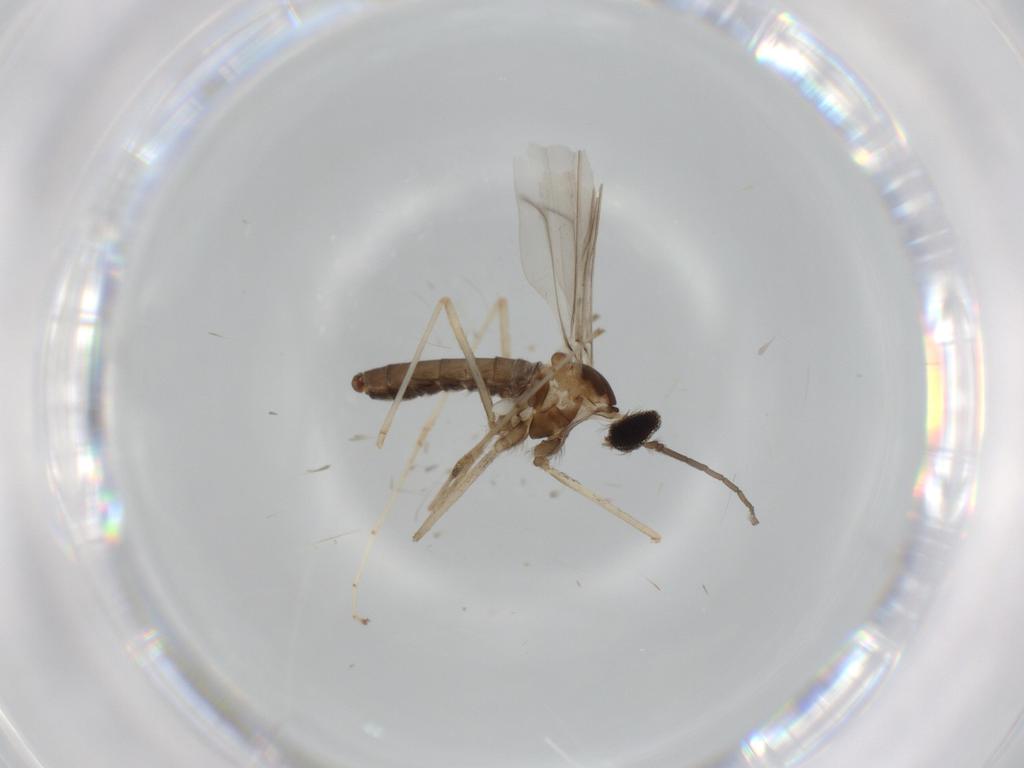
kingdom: Animalia
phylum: Arthropoda
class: Insecta
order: Diptera
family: Cecidomyiidae
